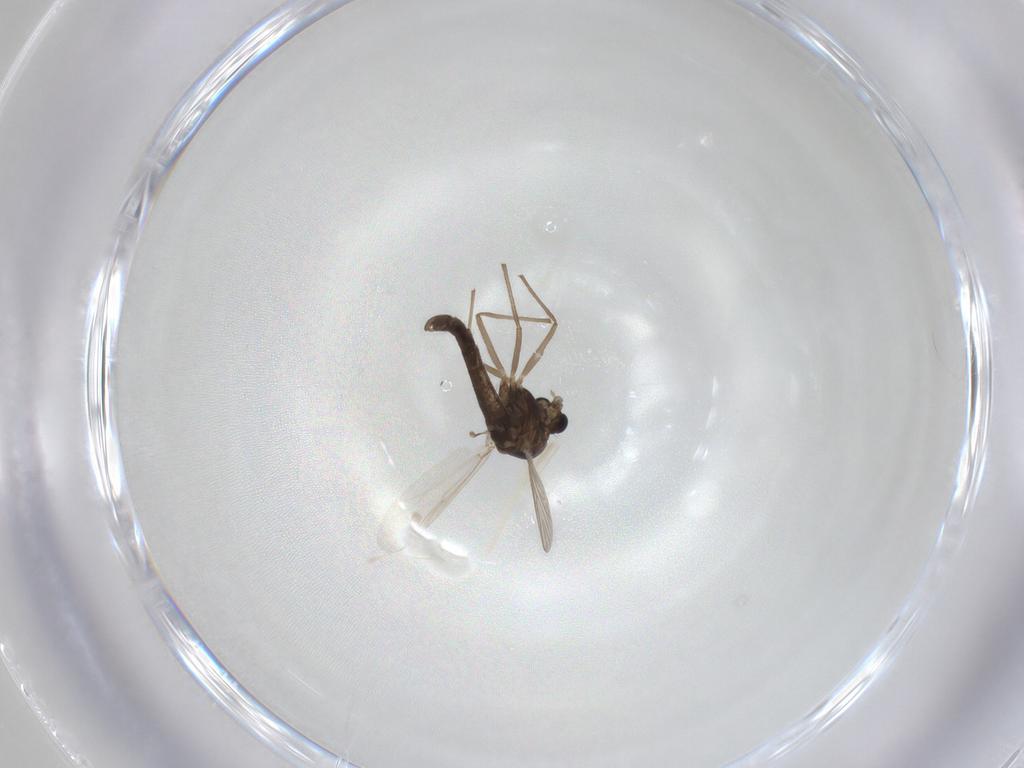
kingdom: Animalia
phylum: Arthropoda
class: Insecta
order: Diptera
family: Chironomidae
